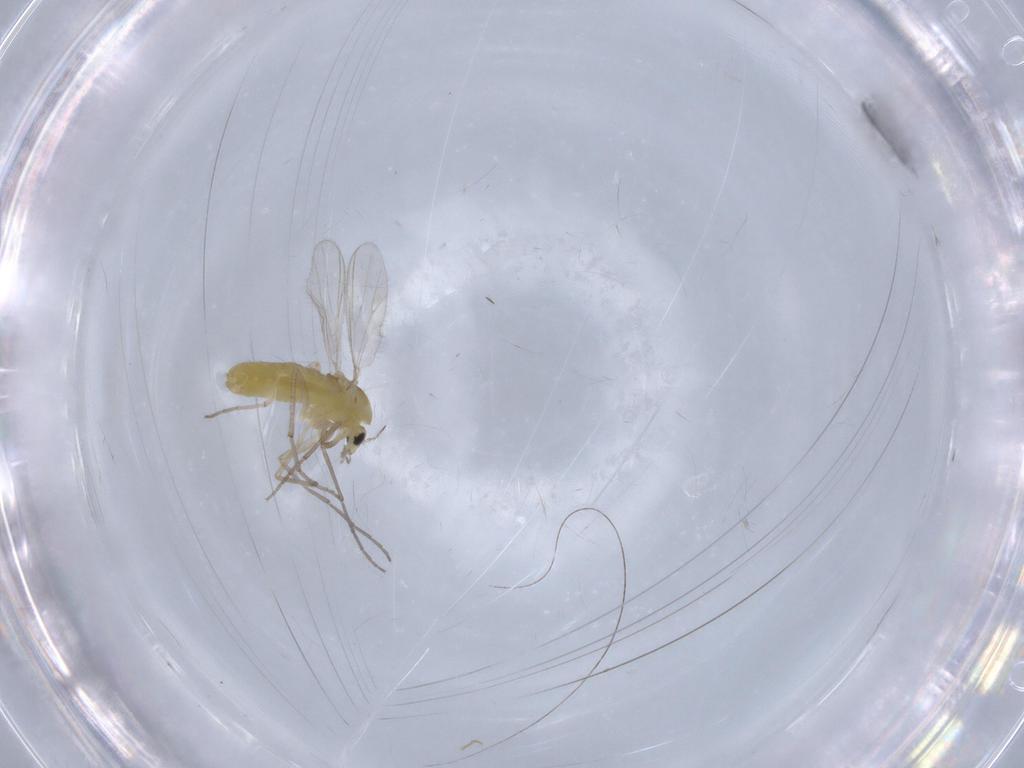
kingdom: Animalia
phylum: Arthropoda
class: Insecta
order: Diptera
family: Chironomidae
